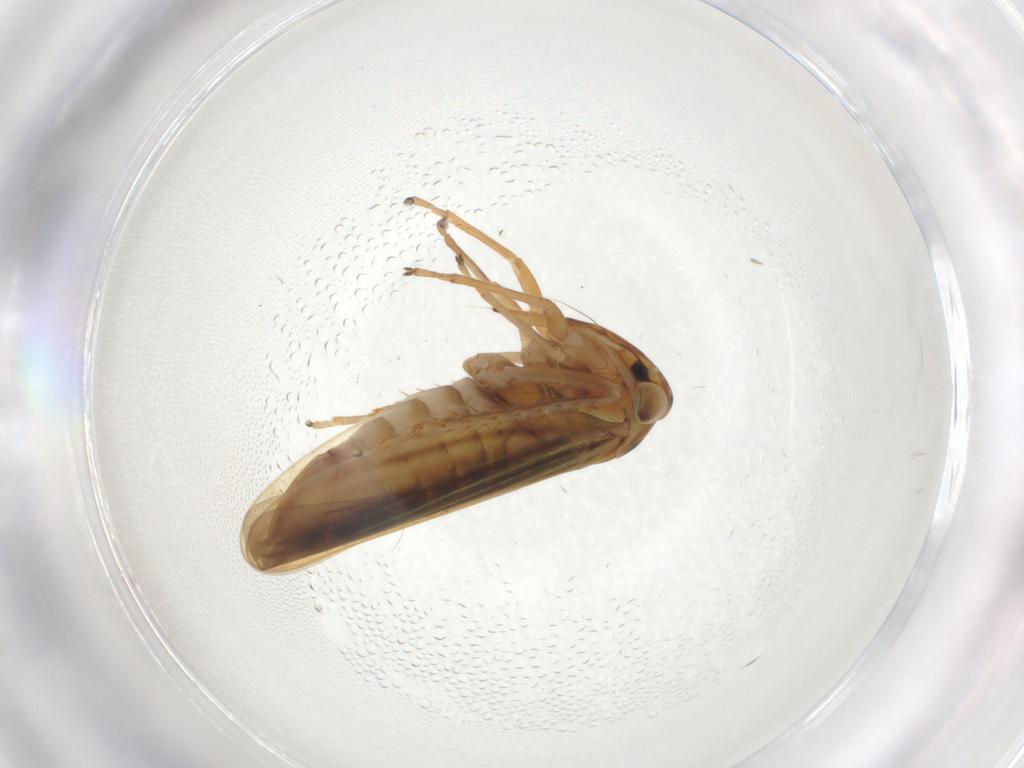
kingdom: Animalia
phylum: Arthropoda
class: Insecta
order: Hemiptera
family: Cicadellidae
